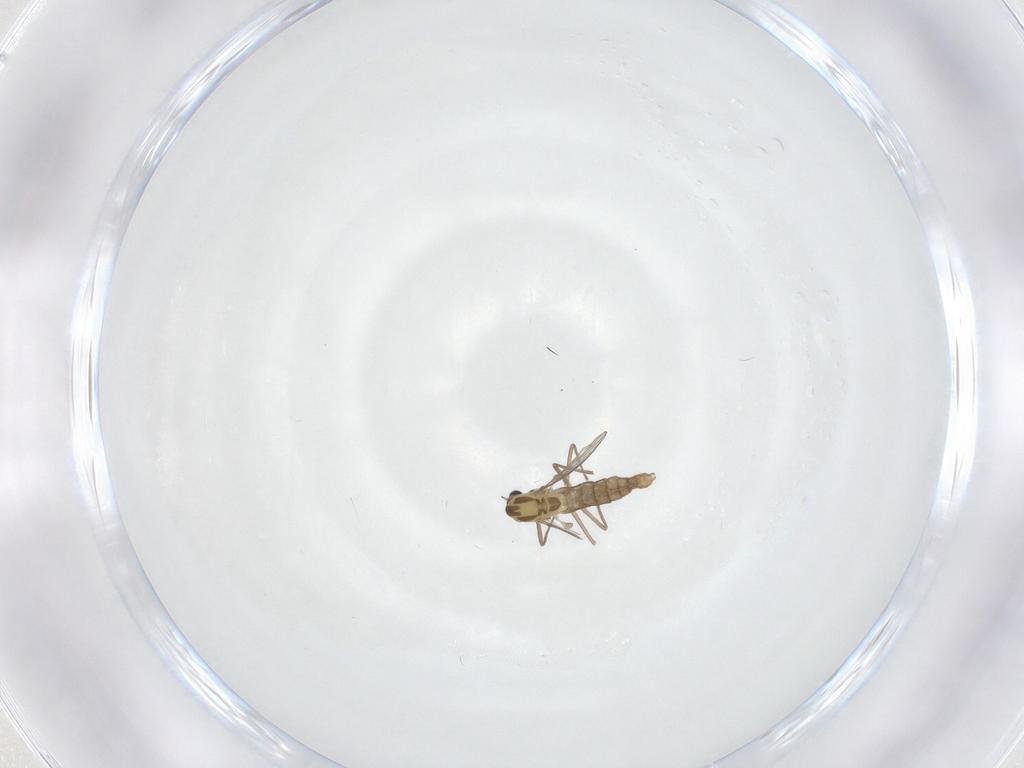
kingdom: Animalia
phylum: Arthropoda
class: Insecta
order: Diptera
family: Chironomidae
